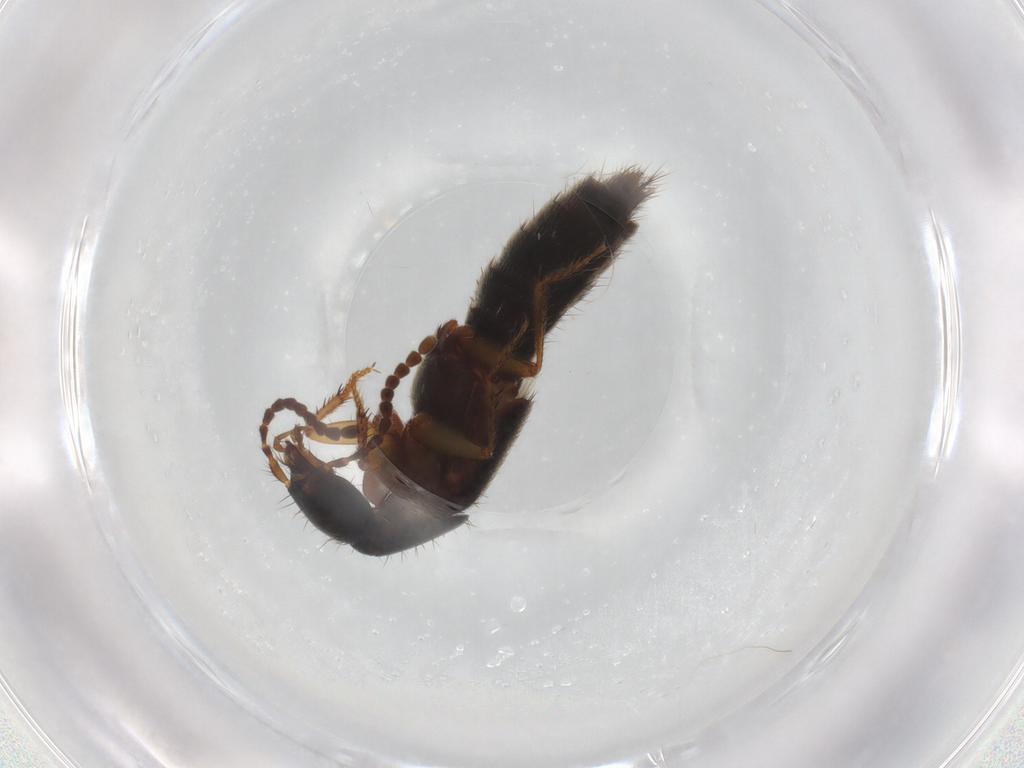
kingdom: Animalia
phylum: Arthropoda
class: Insecta
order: Coleoptera
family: Staphylinidae
